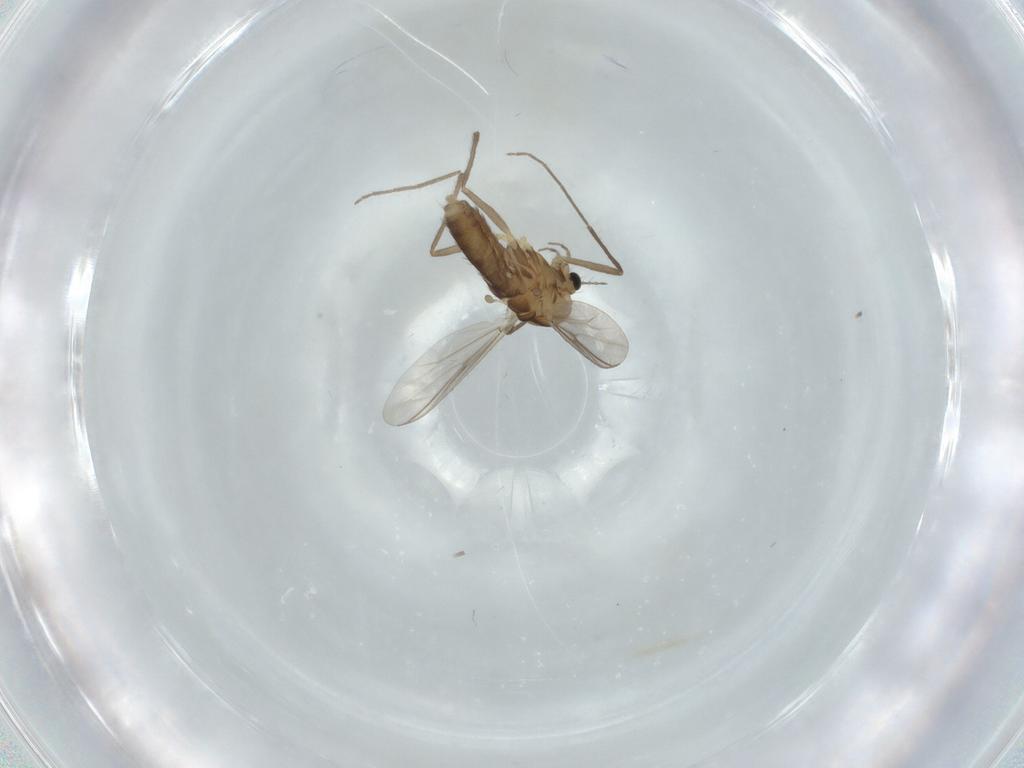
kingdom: Animalia
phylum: Arthropoda
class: Insecta
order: Diptera
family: Chironomidae
